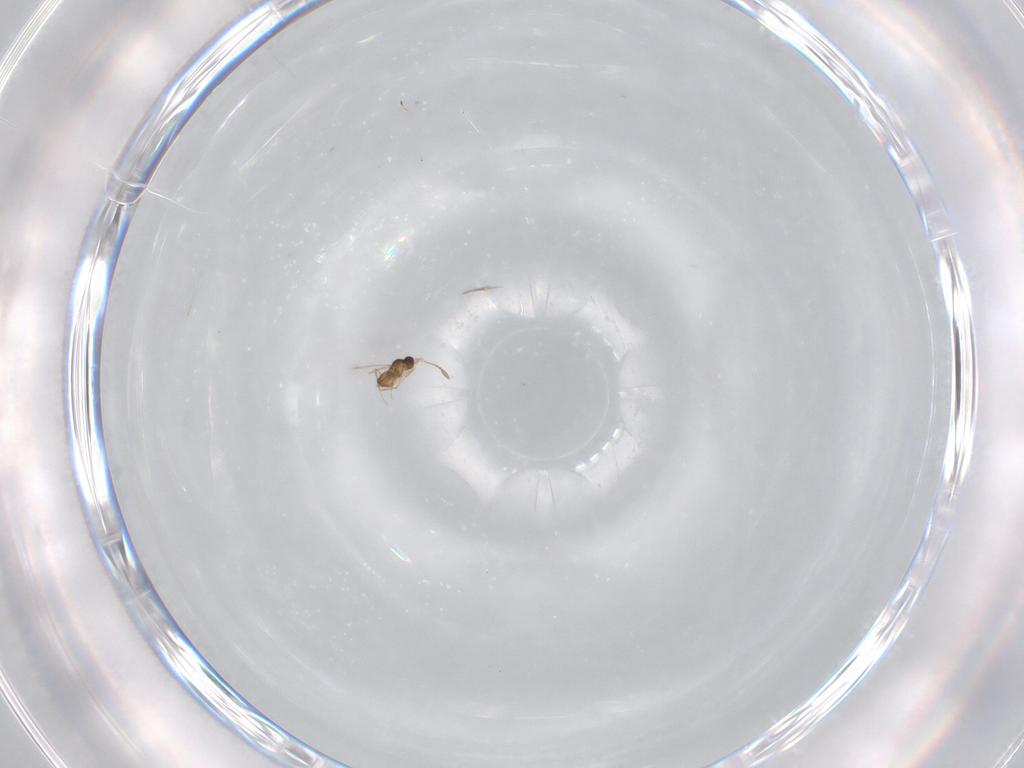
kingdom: Animalia
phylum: Arthropoda
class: Insecta
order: Hymenoptera
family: Mymaridae
